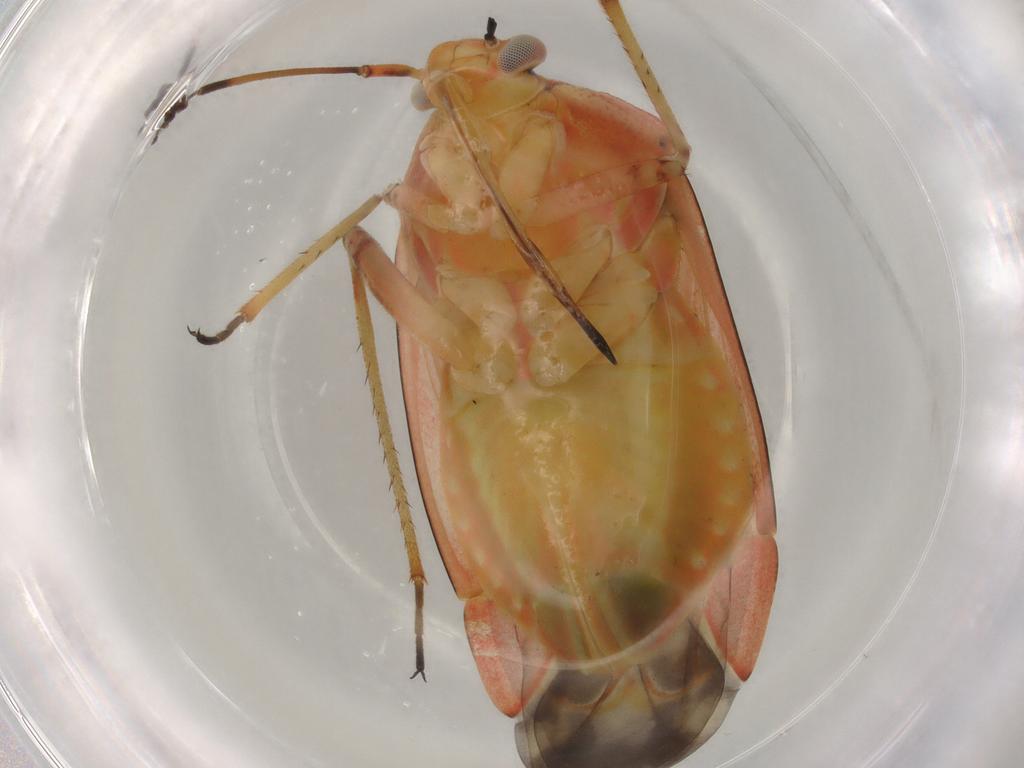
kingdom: Animalia
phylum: Arthropoda
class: Insecta
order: Hemiptera
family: Miridae
